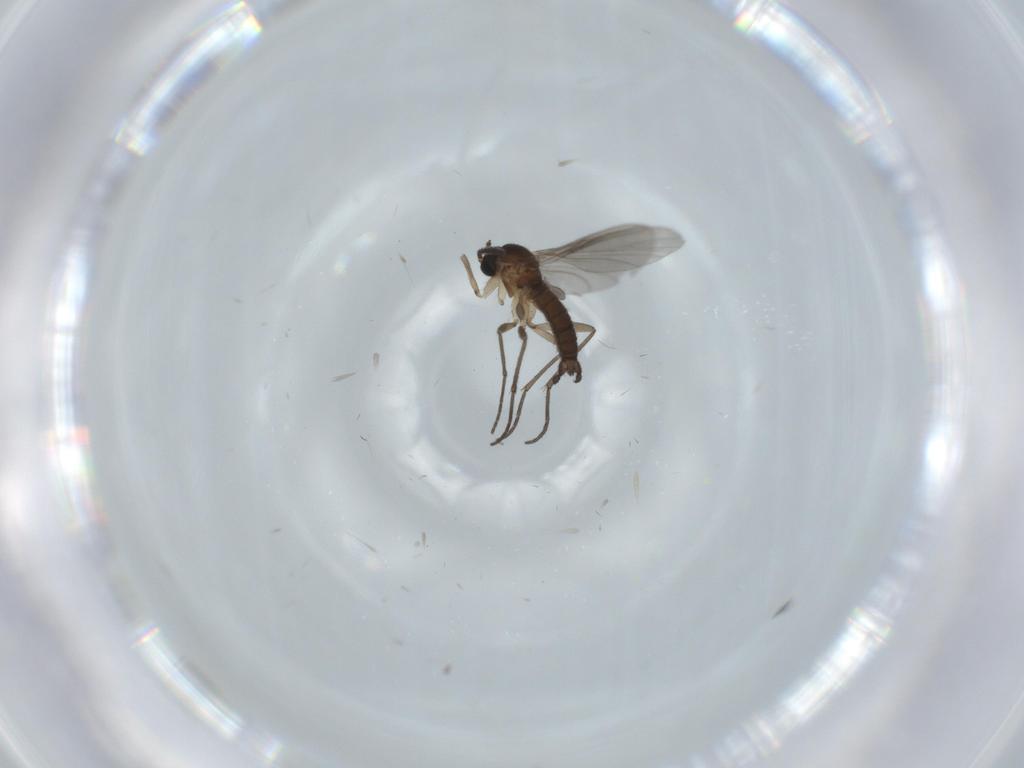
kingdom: Animalia
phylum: Arthropoda
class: Insecta
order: Diptera
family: Sciaridae
